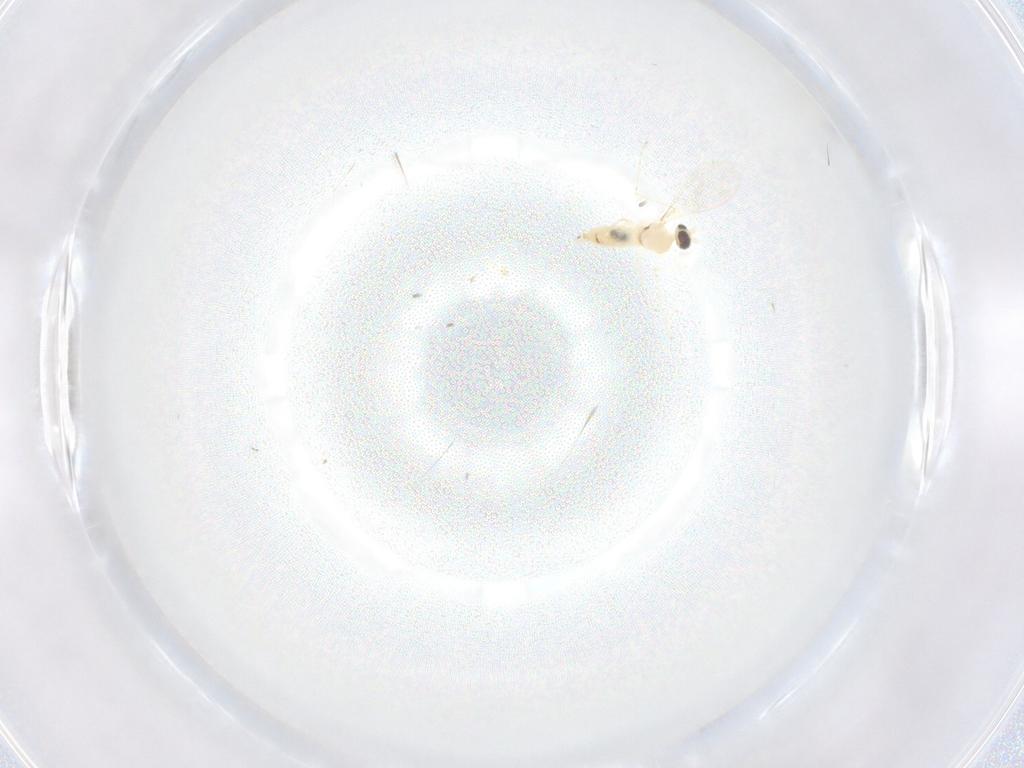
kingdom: Animalia
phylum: Arthropoda
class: Insecta
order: Diptera
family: Cecidomyiidae
